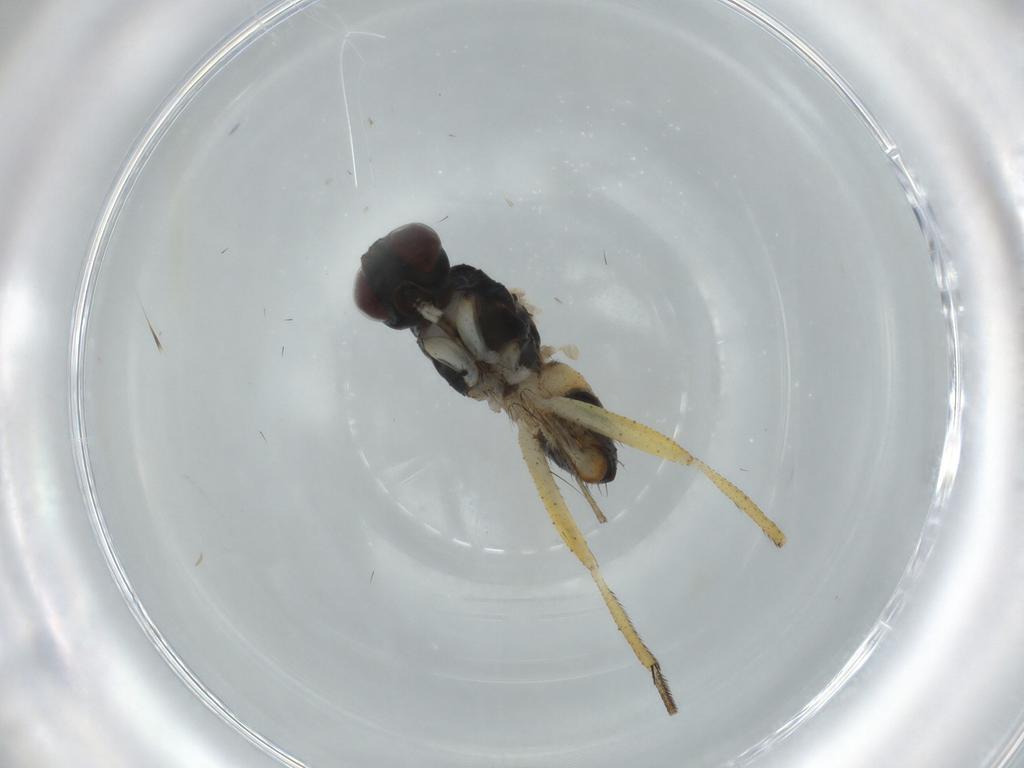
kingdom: Animalia
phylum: Arthropoda
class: Insecta
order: Diptera
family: Muscidae
